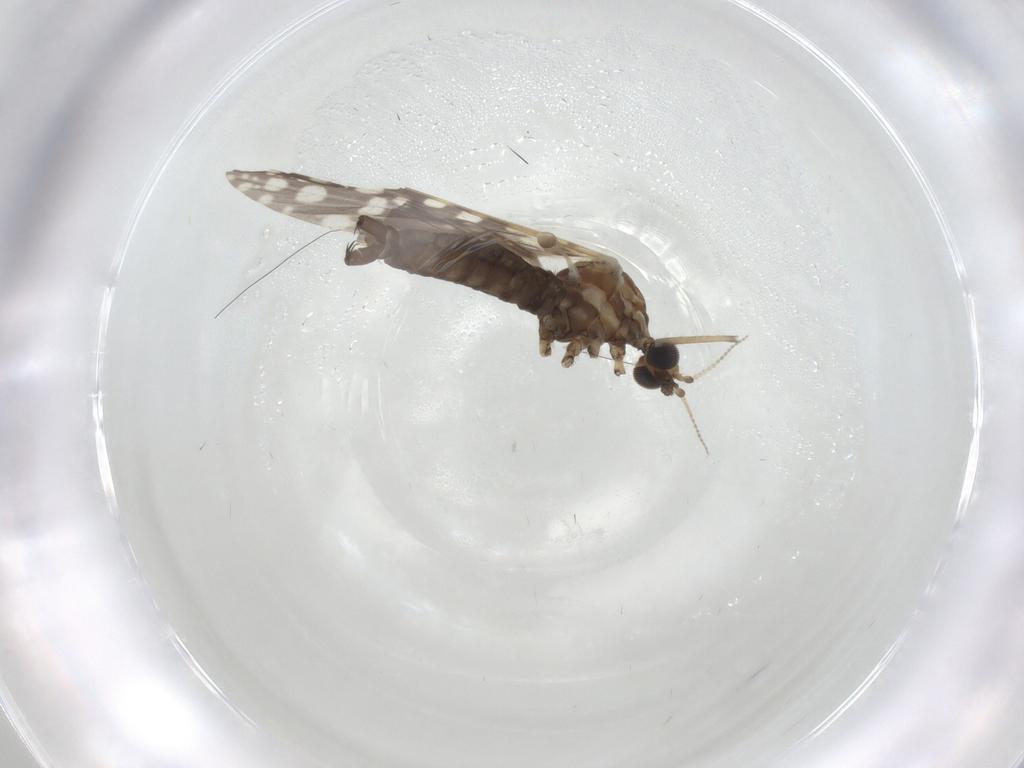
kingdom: Animalia
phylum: Arthropoda
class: Insecta
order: Diptera
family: Limoniidae
